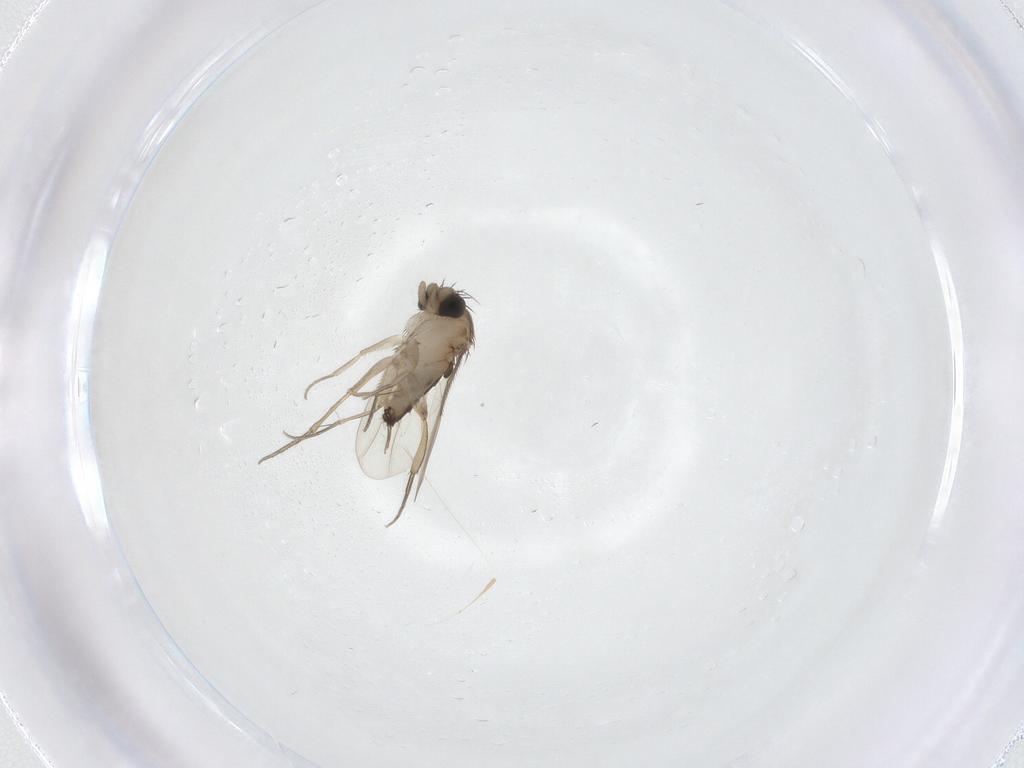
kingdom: Animalia
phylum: Arthropoda
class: Insecta
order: Diptera
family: Phoridae
